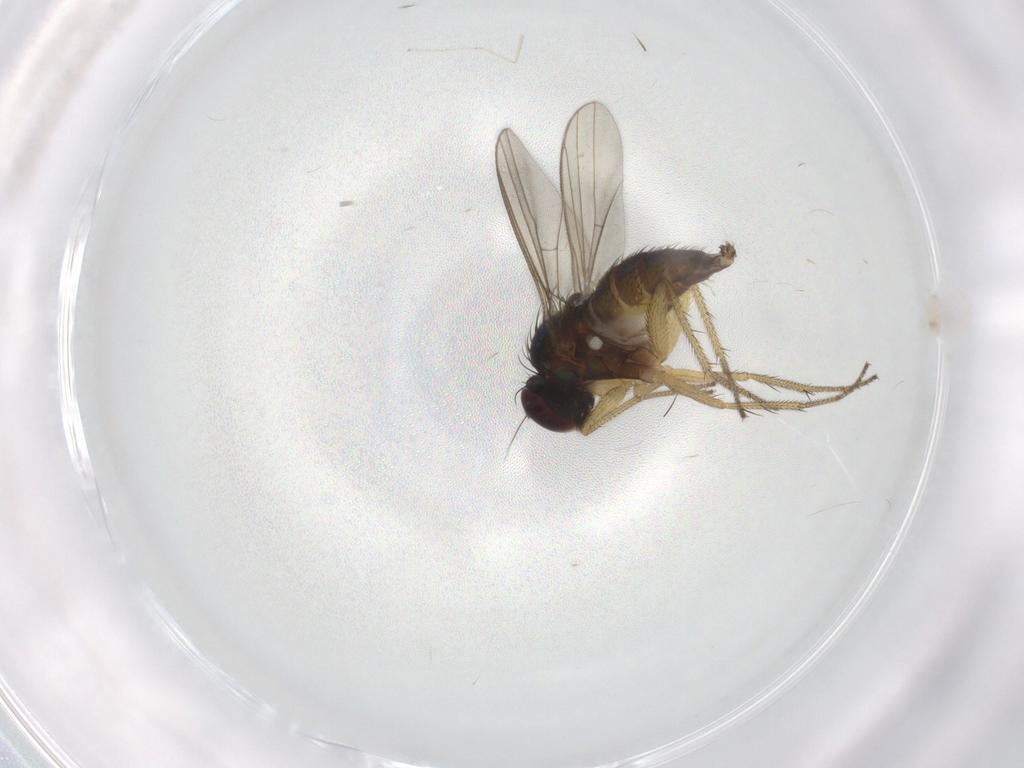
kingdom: Animalia
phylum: Arthropoda
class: Insecta
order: Diptera
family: Cecidomyiidae
